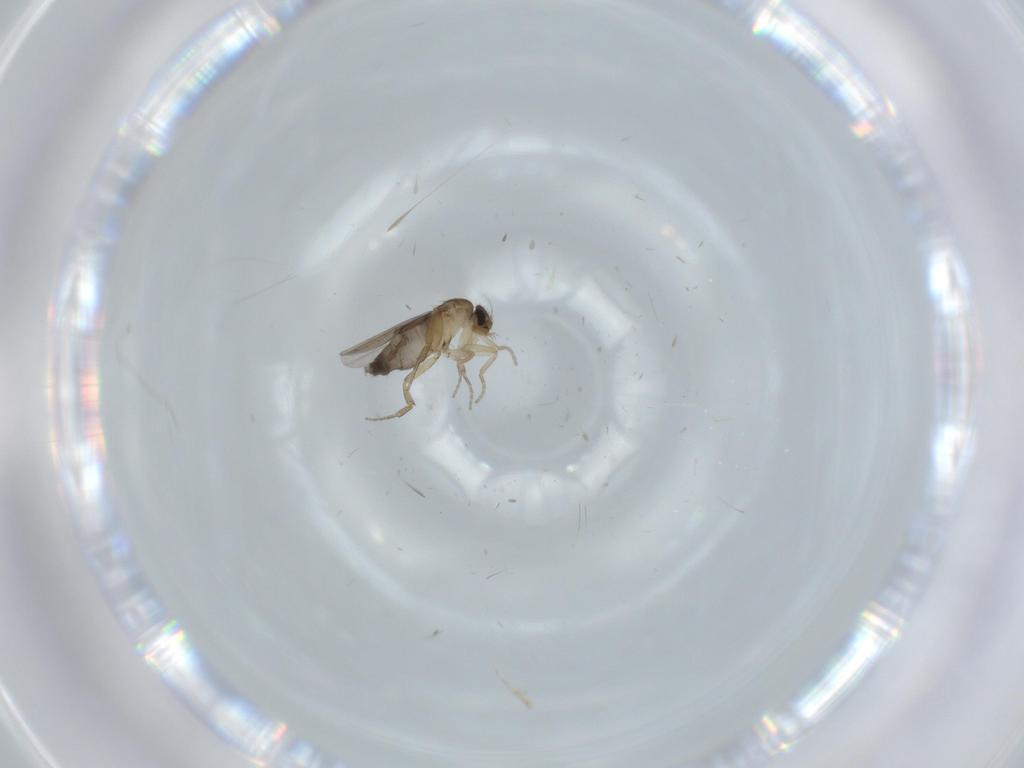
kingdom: Animalia
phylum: Arthropoda
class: Insecta
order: Diptera
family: Phoridae
